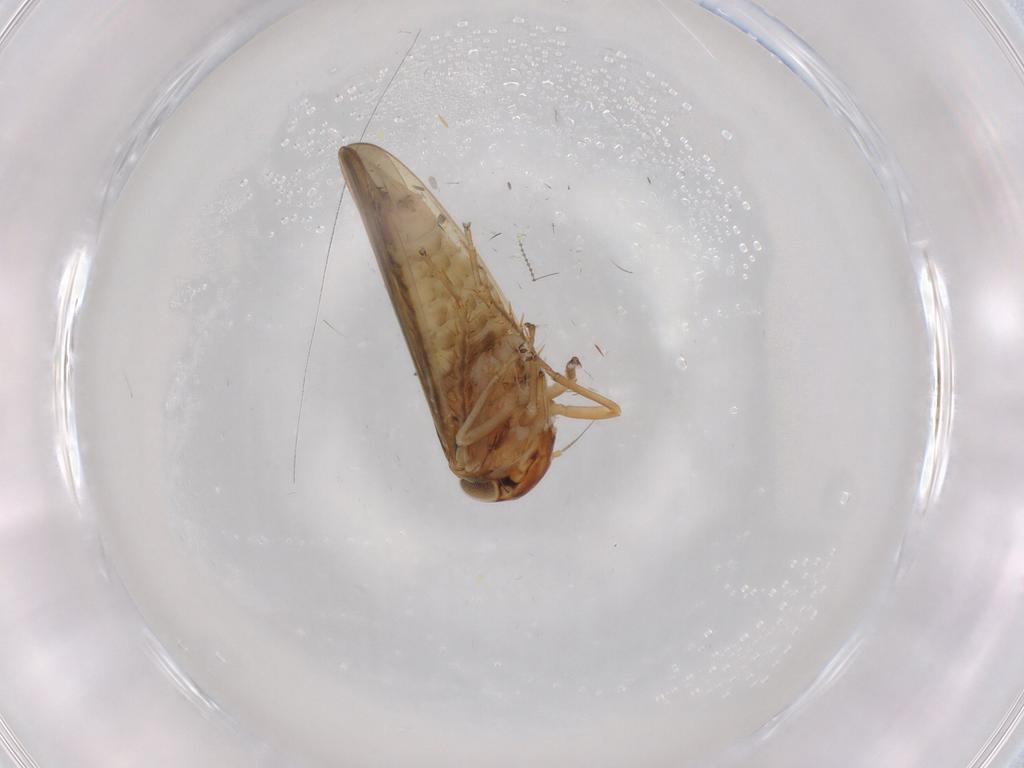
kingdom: Animalia
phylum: Arthropoda
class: Insecta
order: Hemiptera
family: Cicadellidae
